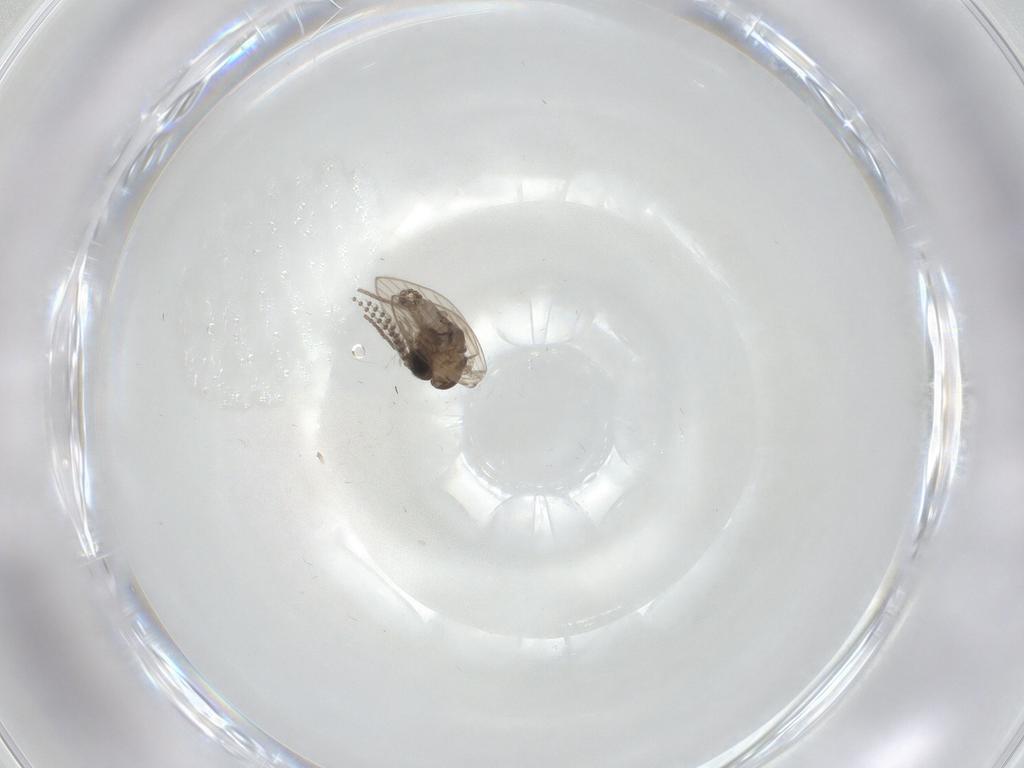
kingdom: Animalia
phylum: Arthropoda
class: Insecta
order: Diptera
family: Psychodidae
